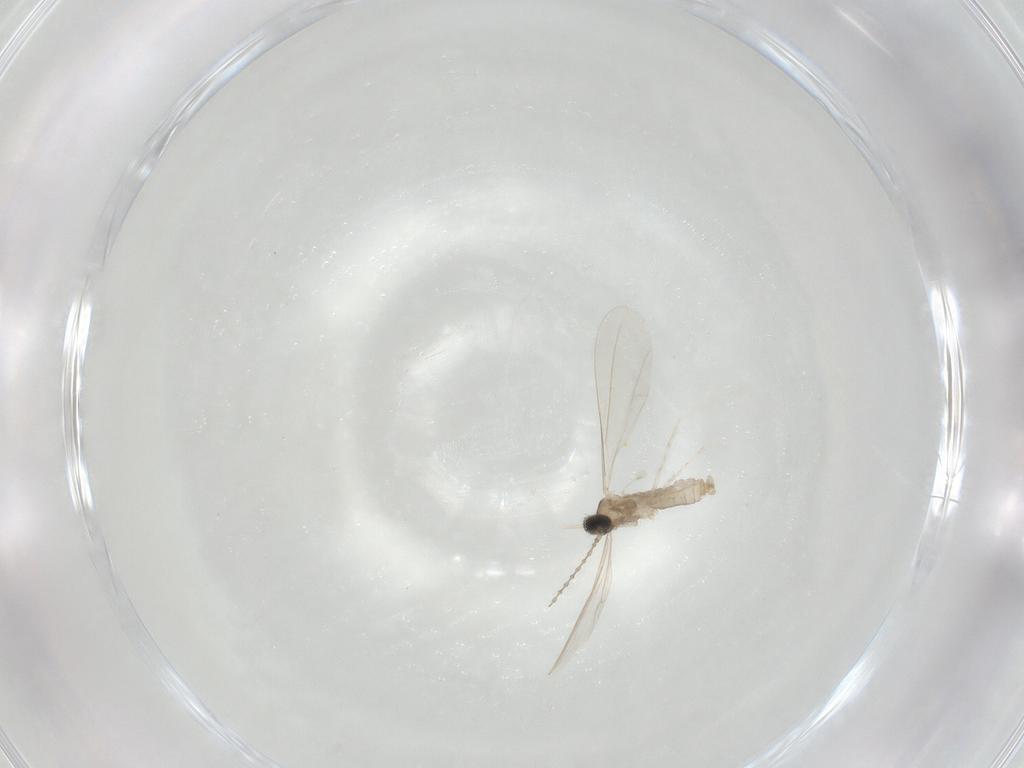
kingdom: Animalia
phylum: Arthropoda
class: Insecta
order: Diptera
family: Cecidomyiidae
